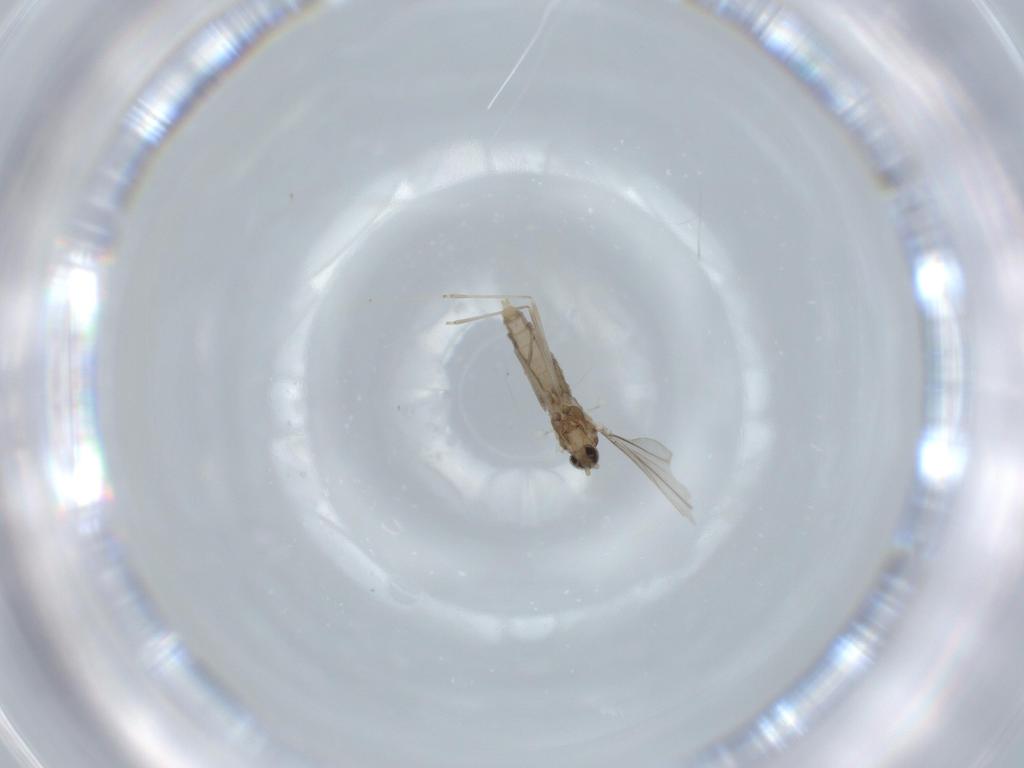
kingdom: Animalia
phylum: Arthropoda
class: Insecta
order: Diptera
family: Cecidomyiidae
